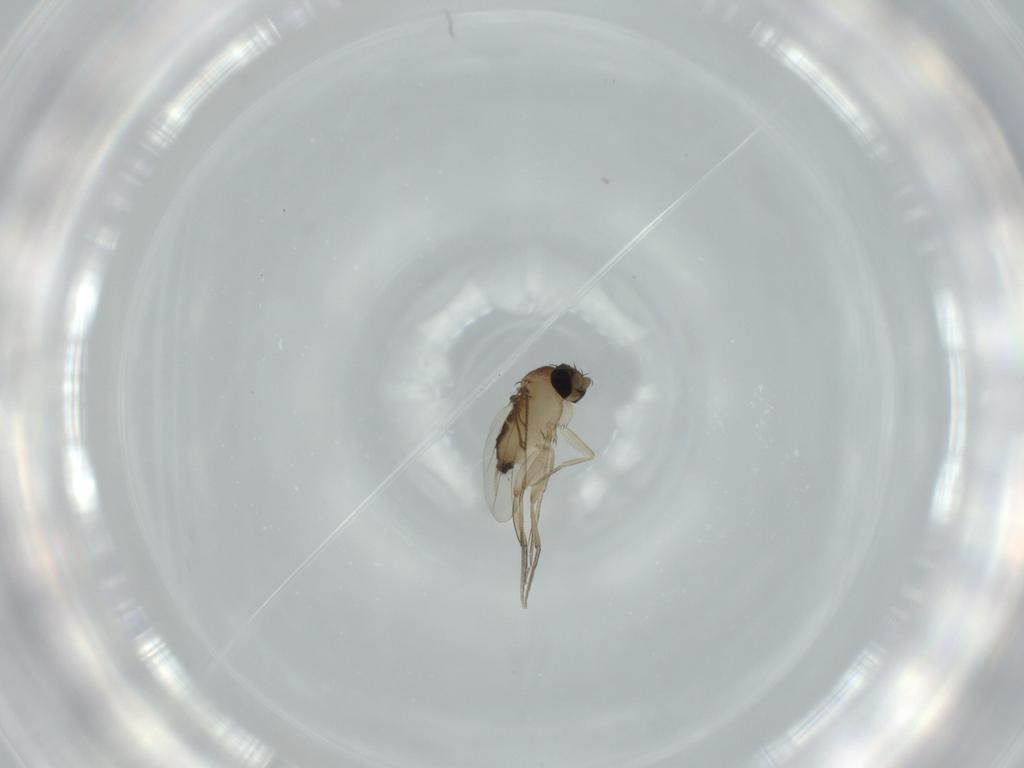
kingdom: Animalia
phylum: Arthropoda
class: Insecta
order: Diptera
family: Phoridae
